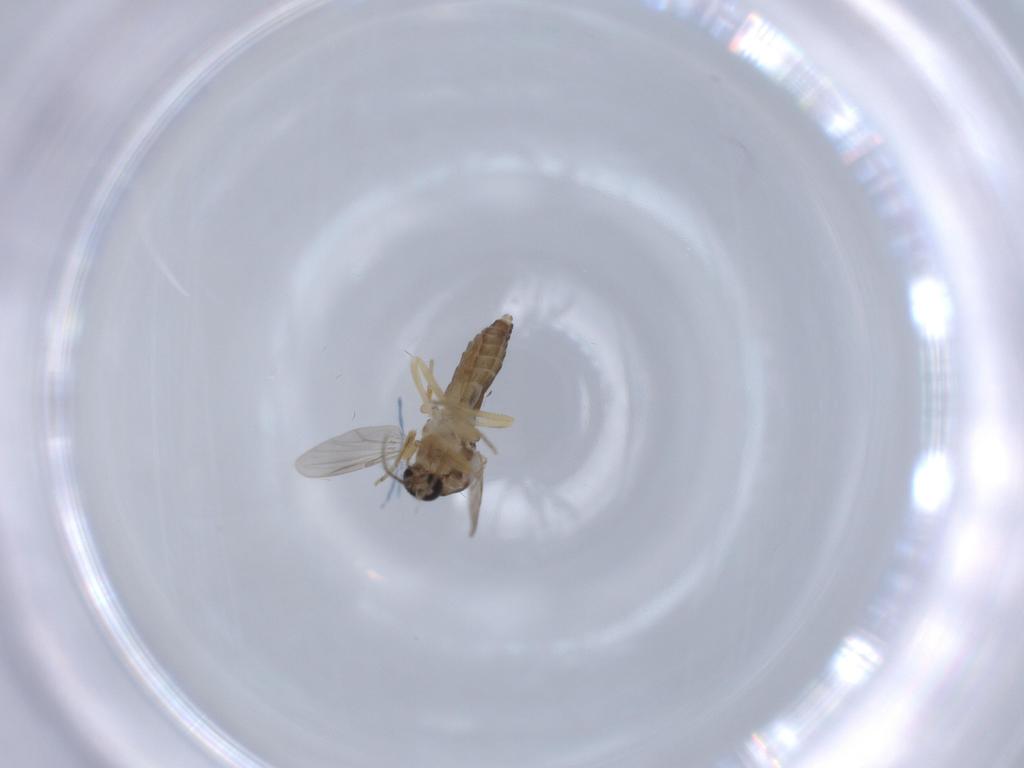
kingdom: Animalia
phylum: Arthropoda
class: Insecta
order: Diptera
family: Ceratopogonidae
